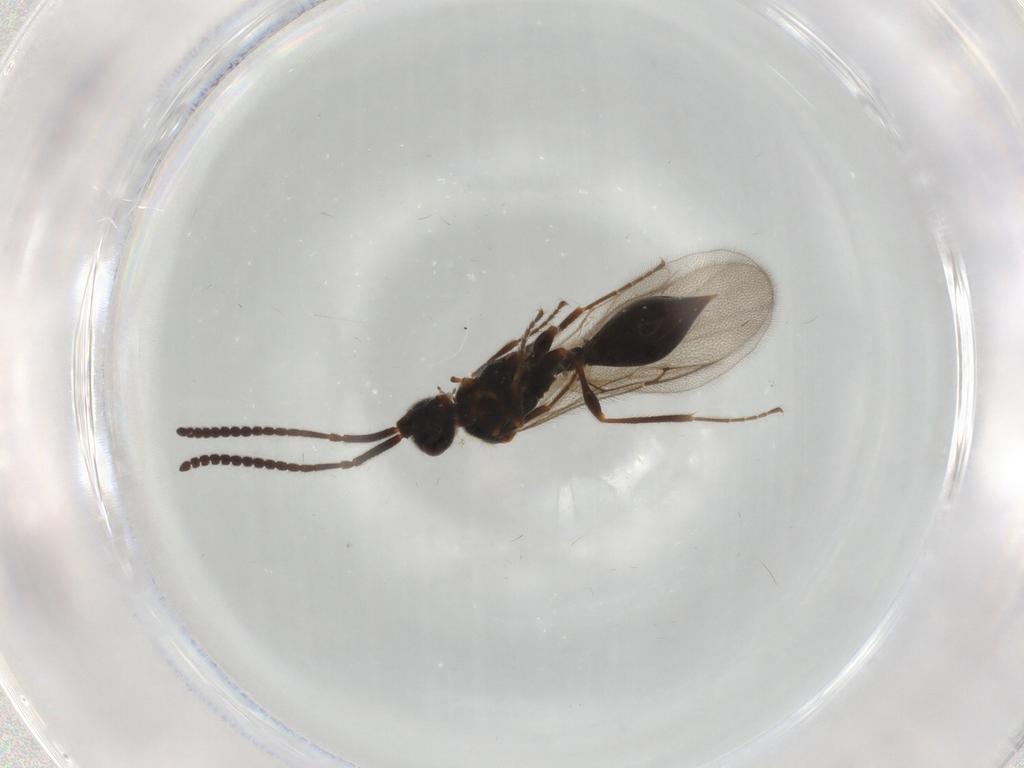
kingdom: Animalia
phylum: Arthropoda
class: Insecta
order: Hymenoptera
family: Diapriidae
